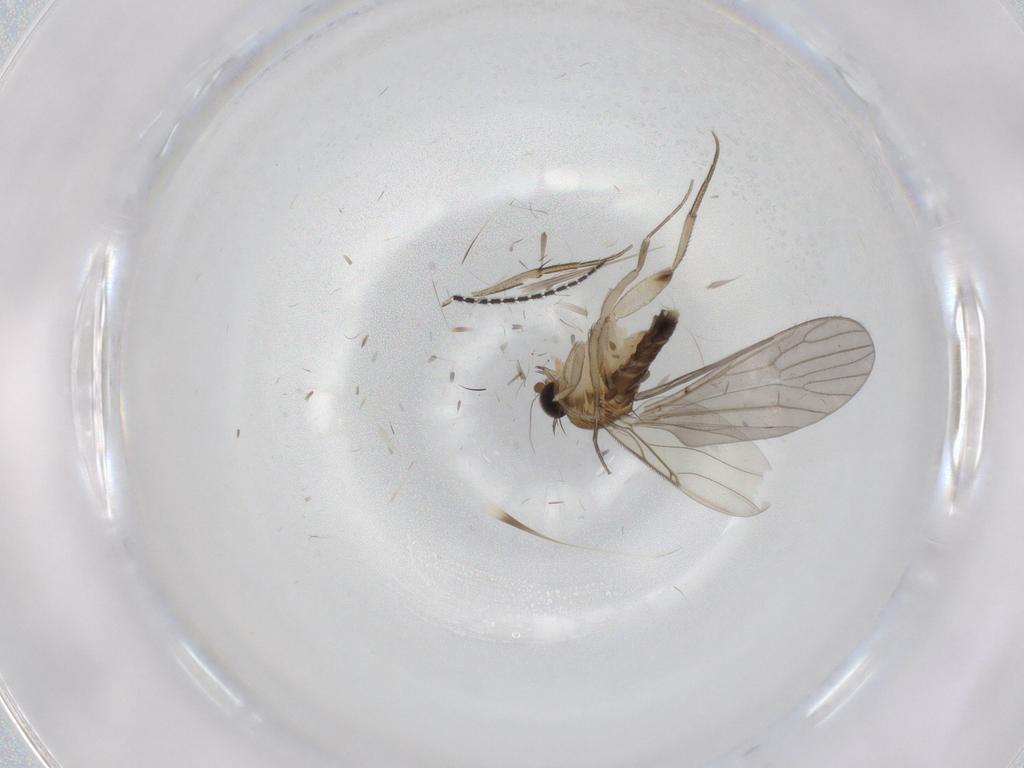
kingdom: Animalia
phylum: Arthropoda
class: Insecta
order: Diptera
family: Phoridae
